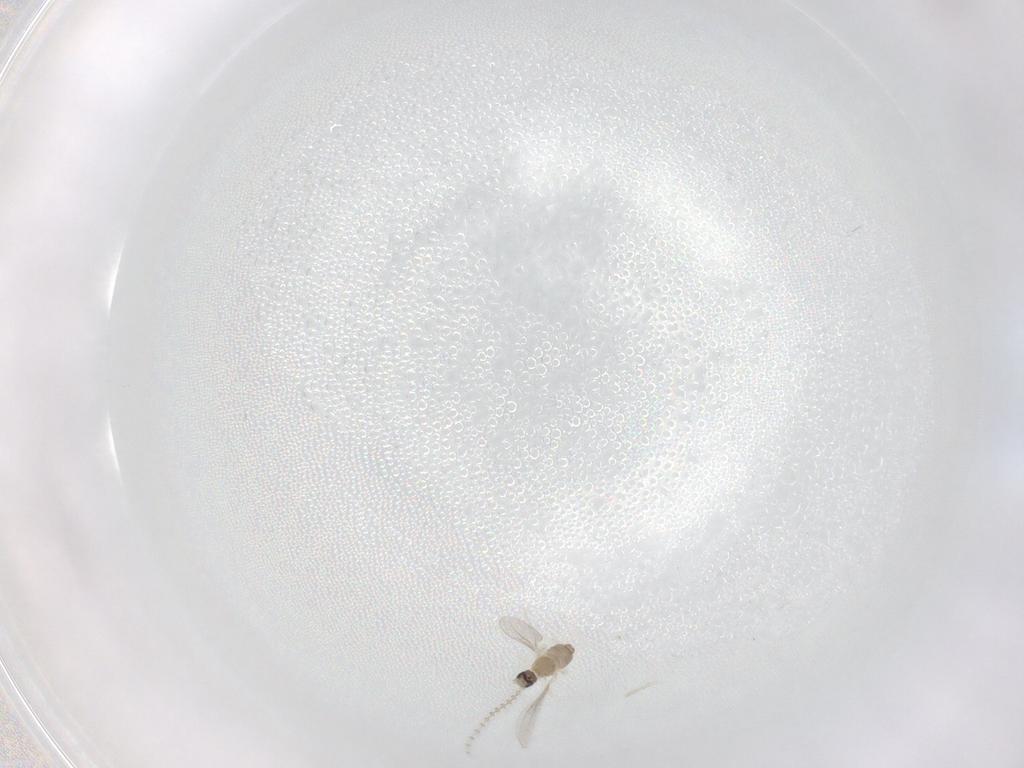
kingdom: Animalia
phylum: Arthropoda
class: Insecta
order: Diptera
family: Cecidomyiidae
